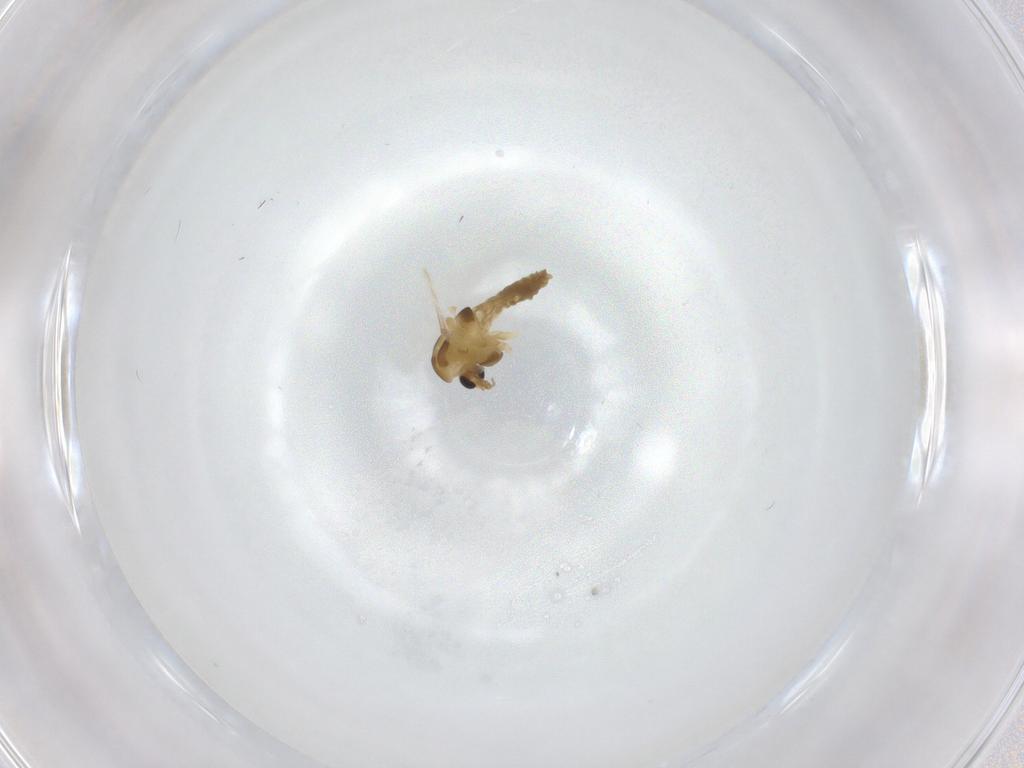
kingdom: Animalia
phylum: Arthropoda
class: Insecta
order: Diptera
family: Chironomidae
